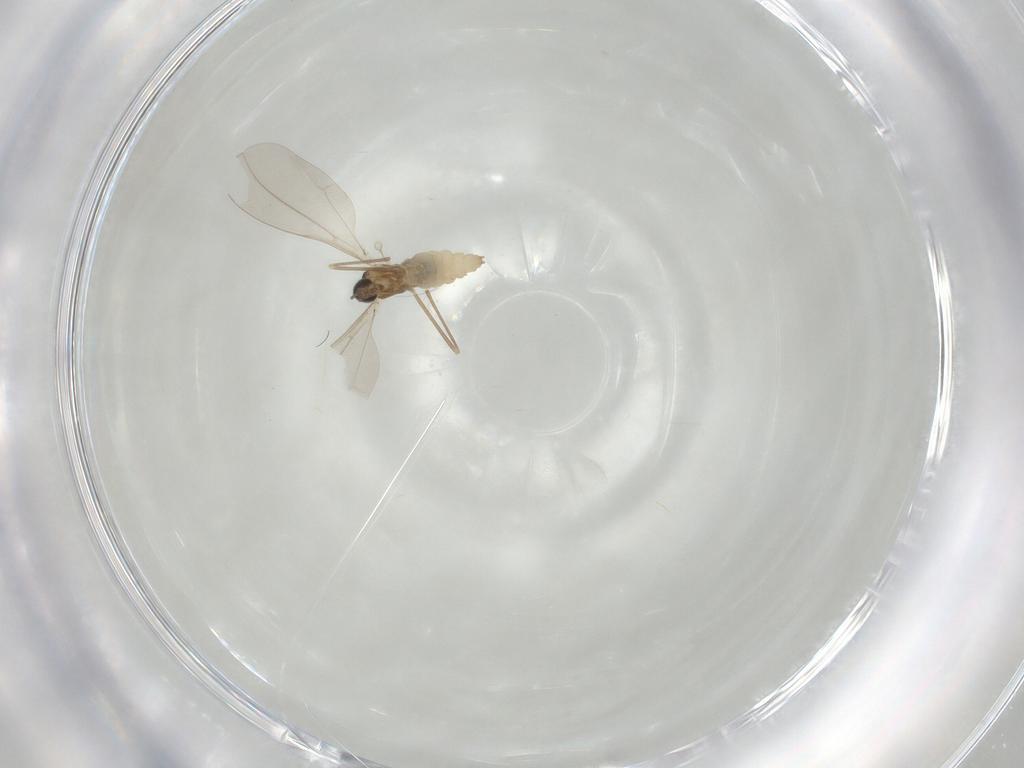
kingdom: Animalia
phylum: Arthropoda
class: Insecta
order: Diptera
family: Cecidomyiidae
